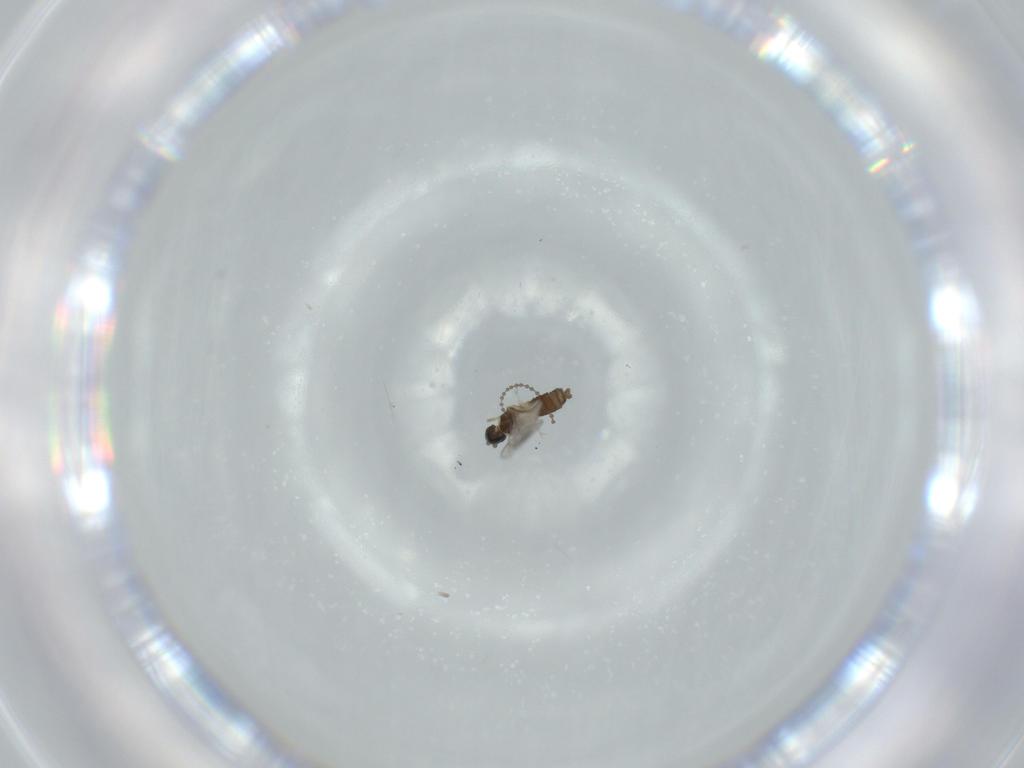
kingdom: Animalia
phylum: Arthropoda
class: Insecta
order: Diptera
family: Cecidomyiidae
